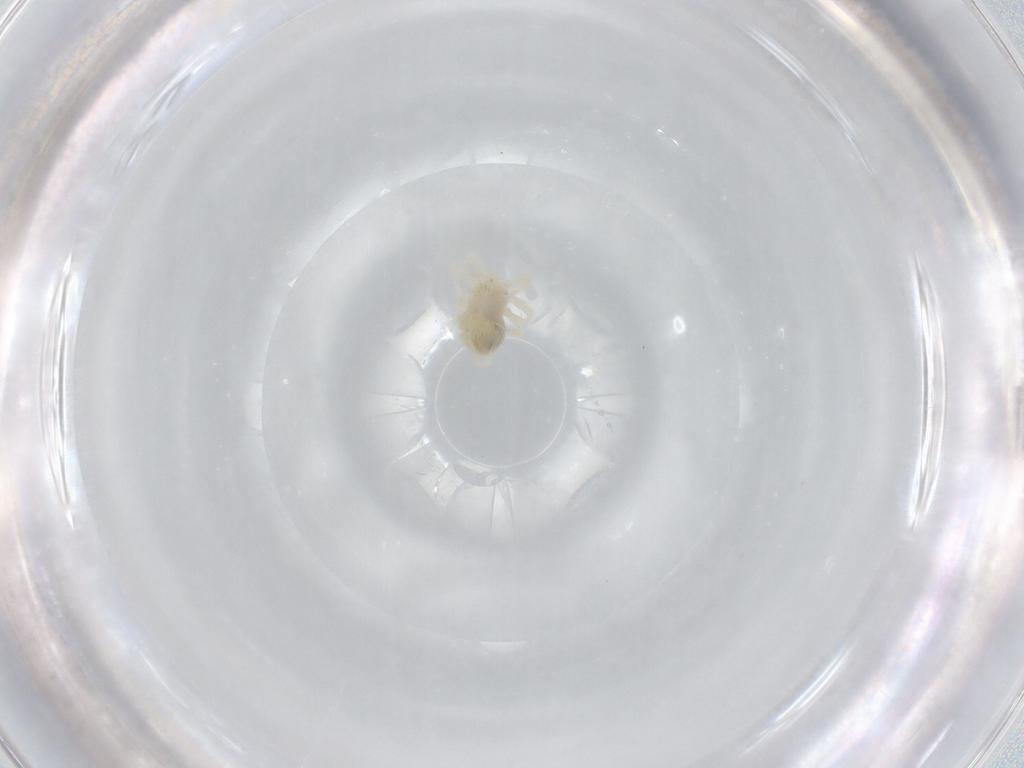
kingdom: Animalia
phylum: Arthropoda
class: Arachnida
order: Trombidiformes
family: Anystidae
